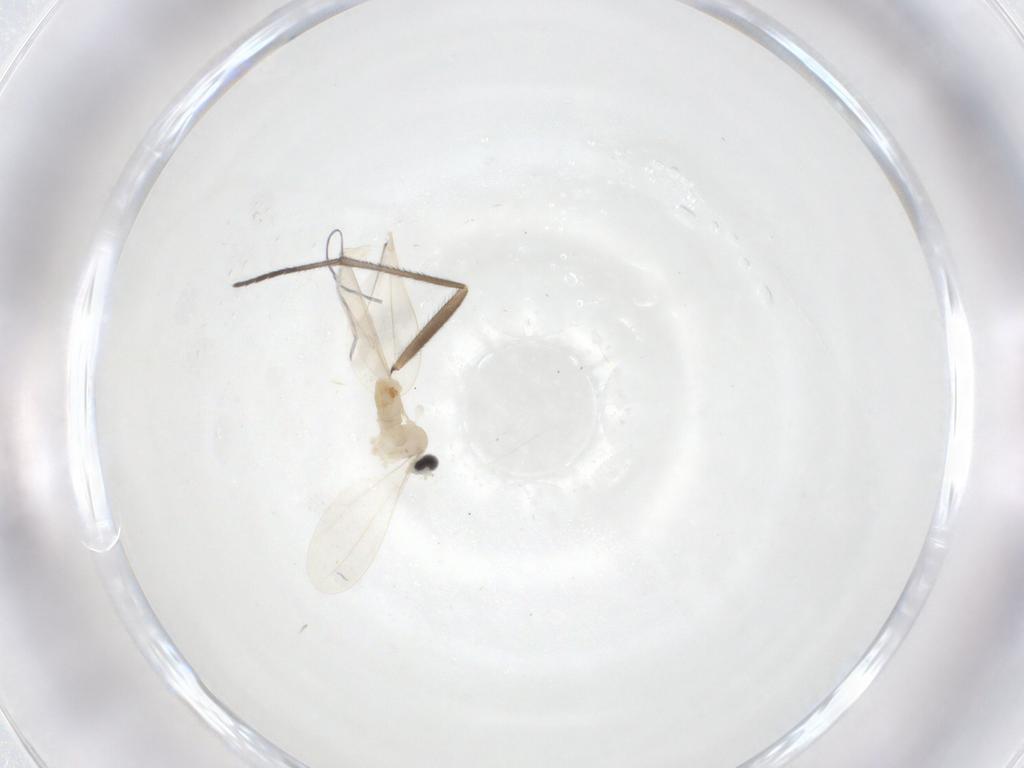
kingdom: Animalia
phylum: Arthropoda
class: Insecta
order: Diptera
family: Cecidomyiidae
